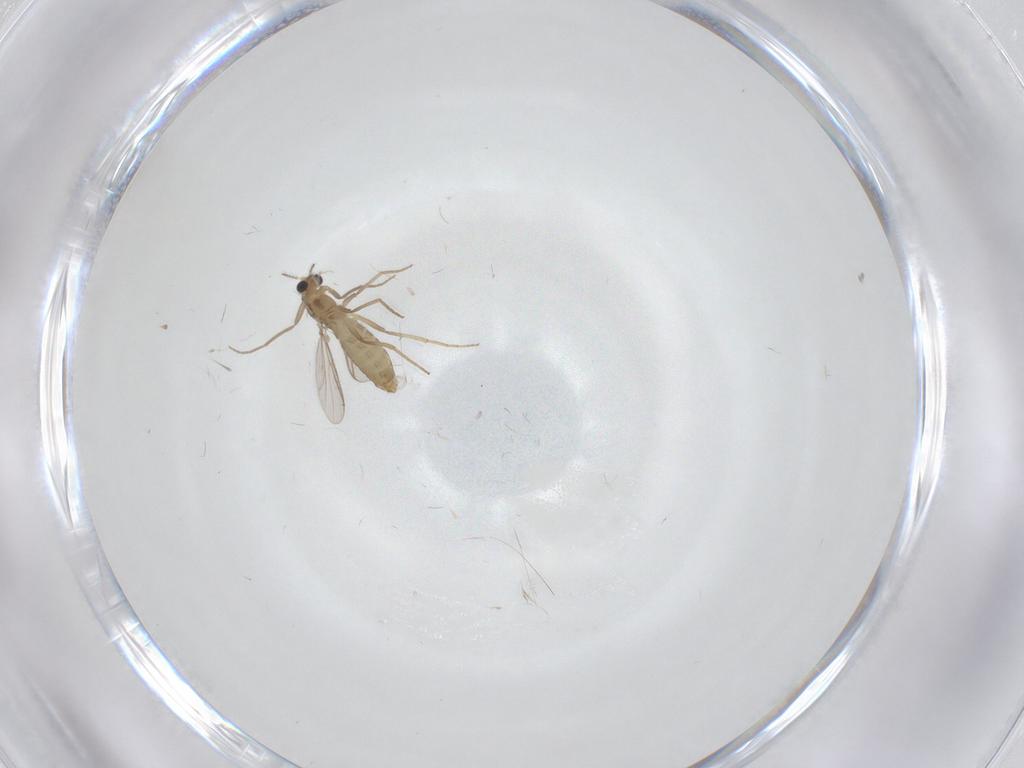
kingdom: Animalia
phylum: Arthropoda
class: Insecta
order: Diptera
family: Chironomidae
